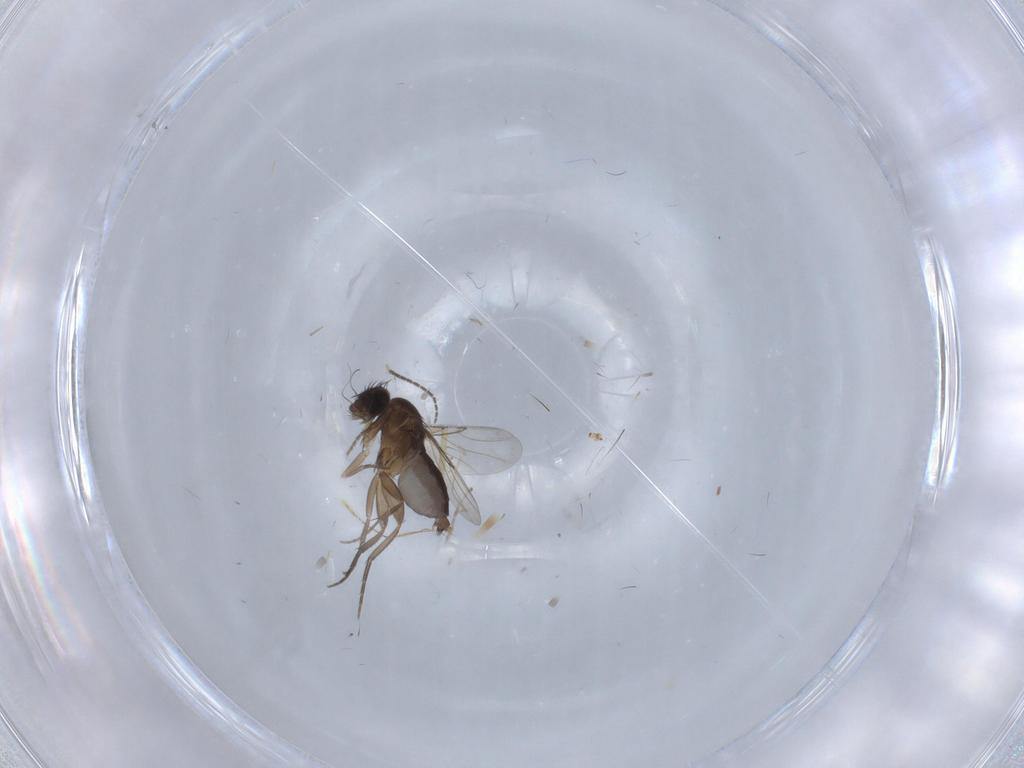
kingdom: Animalia
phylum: Arthropoda
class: Insecta
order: Diptera
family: Phoridae
